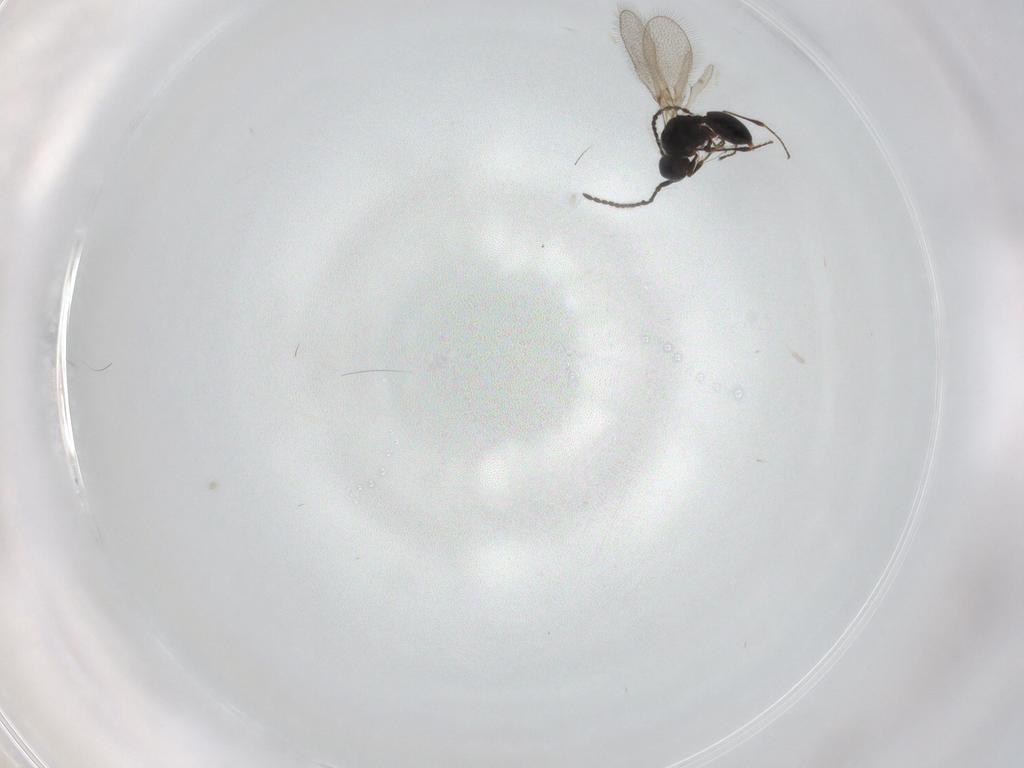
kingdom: Animalia
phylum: Arthropoda
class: Insecta
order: Hymenoptera
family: Diapriidae
